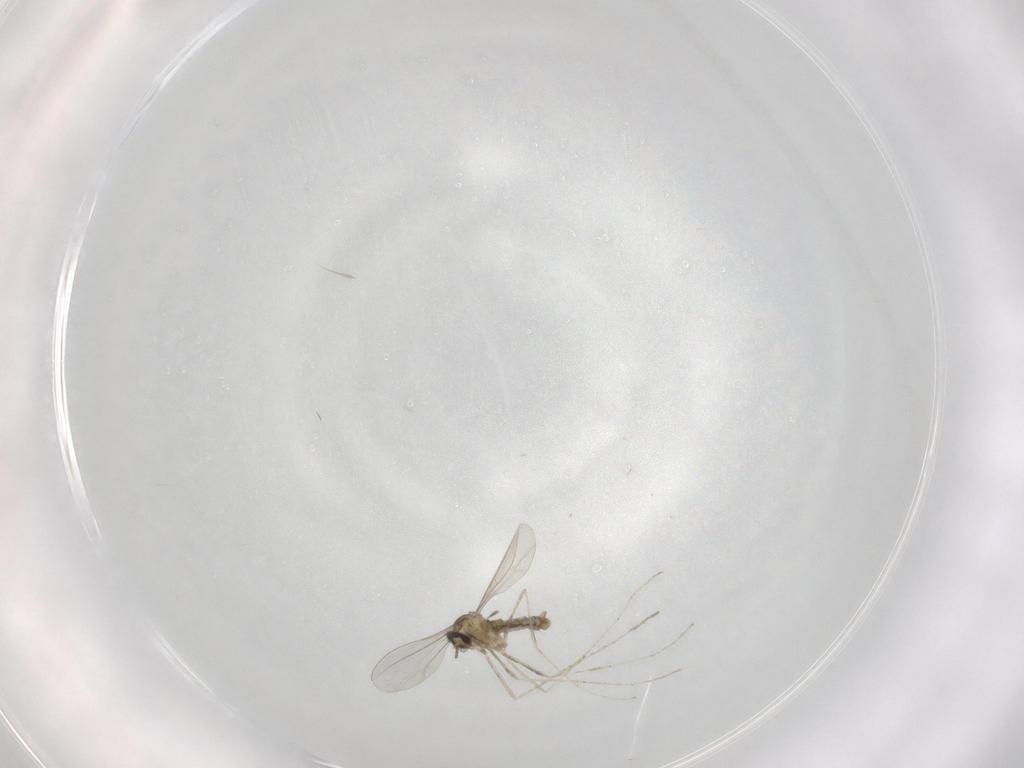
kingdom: Animalia
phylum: Arthropoda
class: Insecta
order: Diptera
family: Cecidomyiidae
